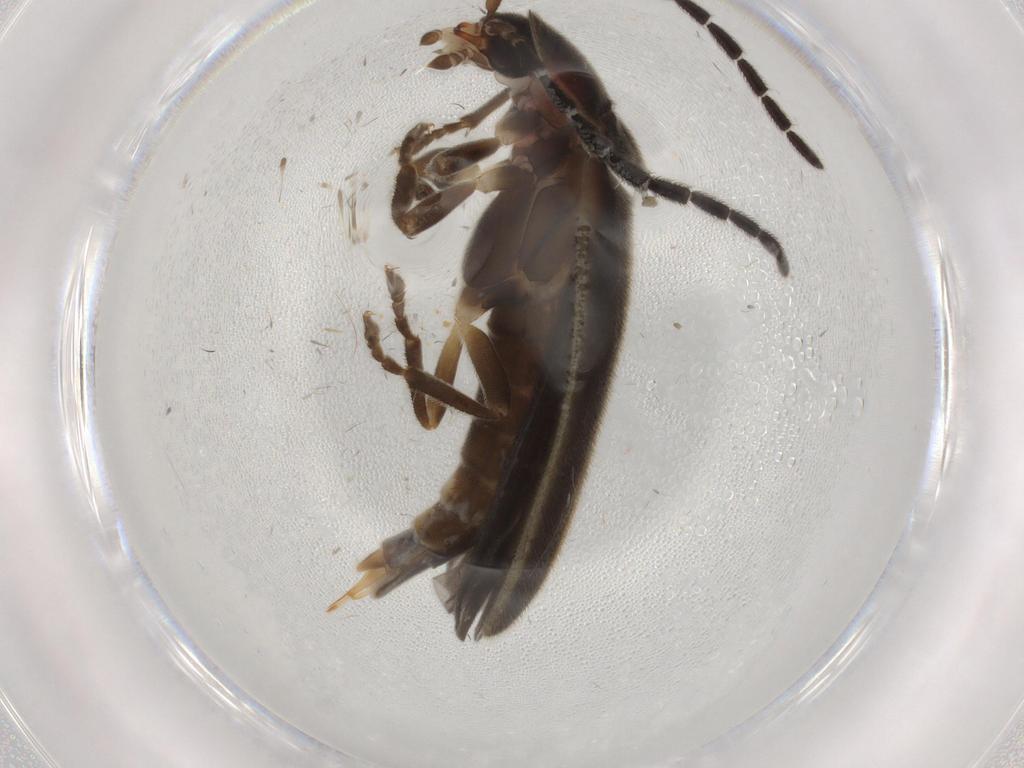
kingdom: Animalia
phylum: Arthropoda
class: Insecta
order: Coleoptera
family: Lampyridae
